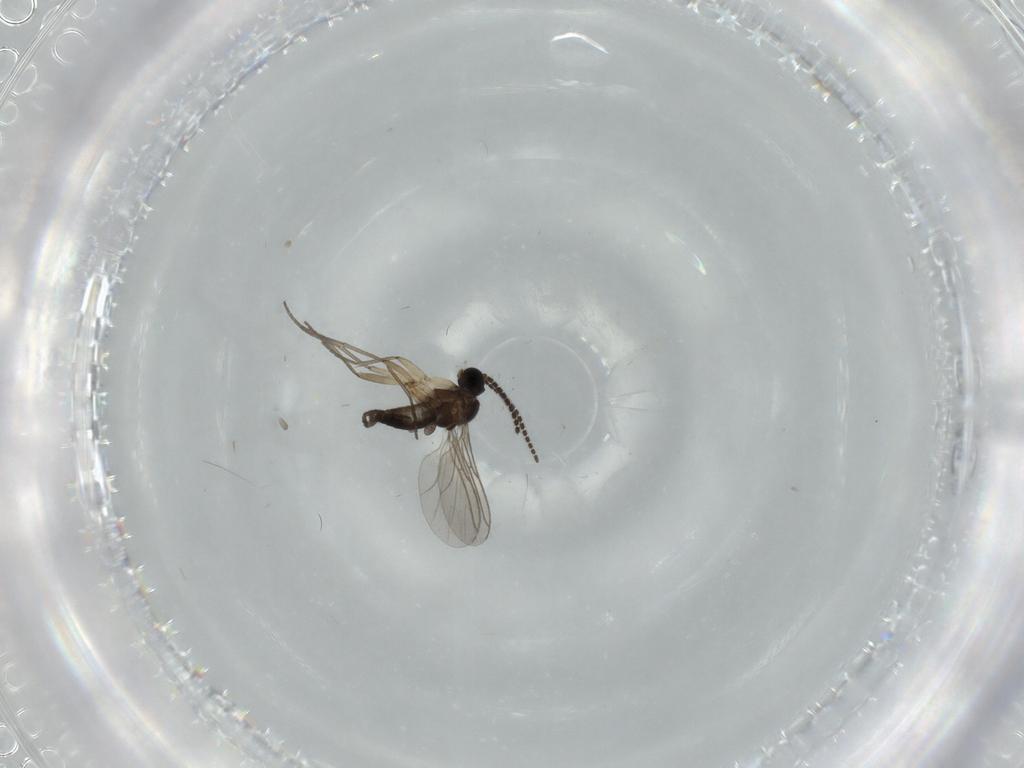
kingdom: Animalia
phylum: Arthropoda
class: Insecta
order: Diptera
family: Sciaridae
